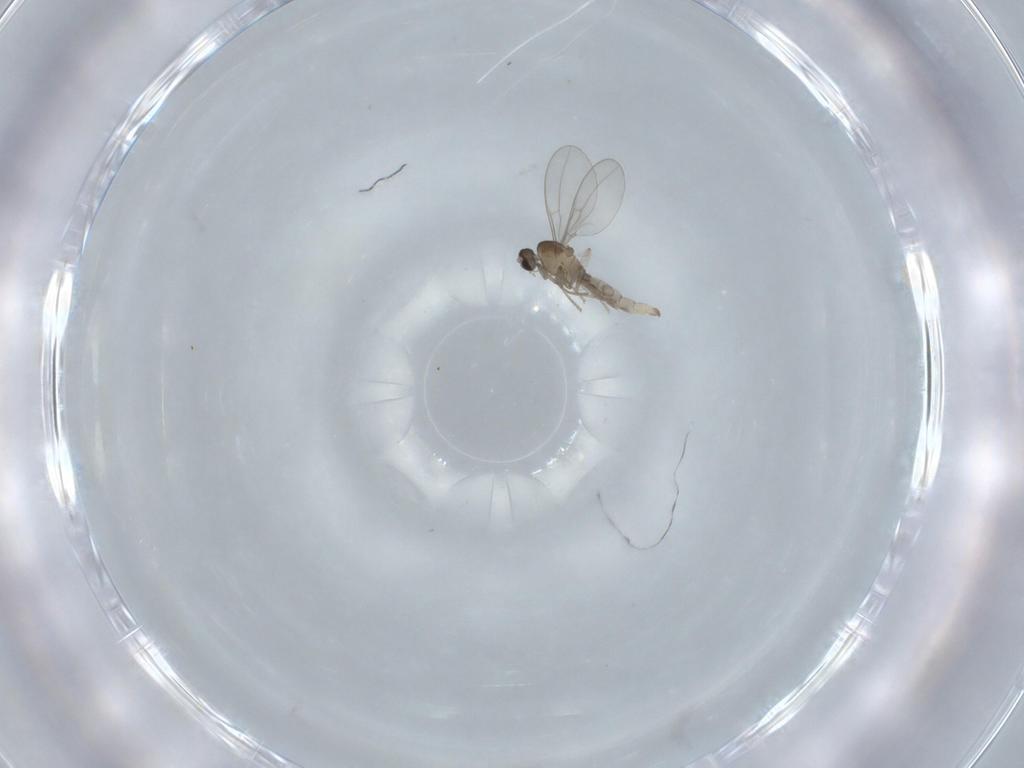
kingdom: Animalia
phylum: Arthropoda
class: Insecta
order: Diptera
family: Cecidomyiidae
